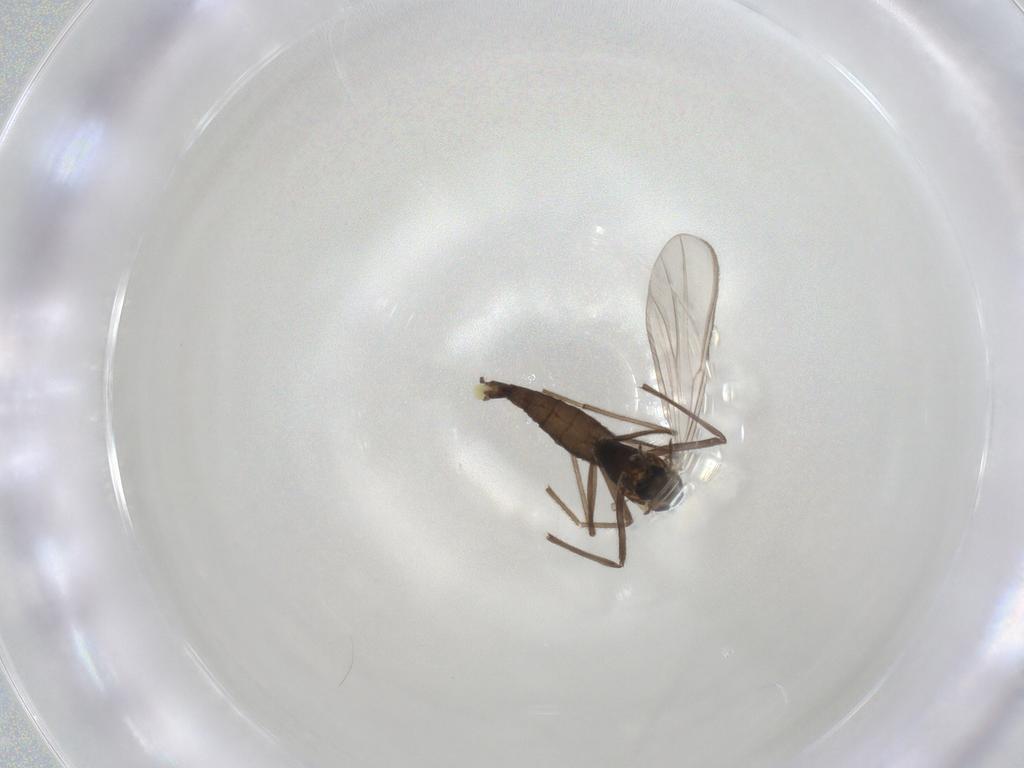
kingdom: Animalia
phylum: Arthropoda
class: Insecta
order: Diptera
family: Chironomidae
